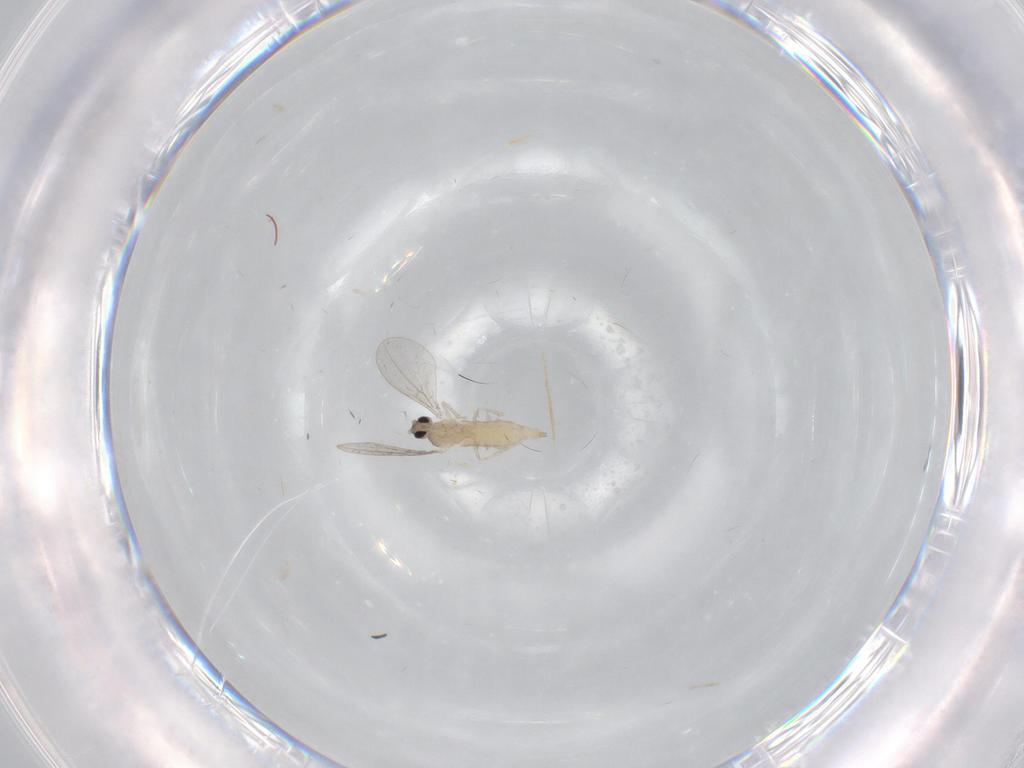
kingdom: Animalia
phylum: Arthropoda
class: Insecta
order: Diptera
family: Cecidomyiidae
